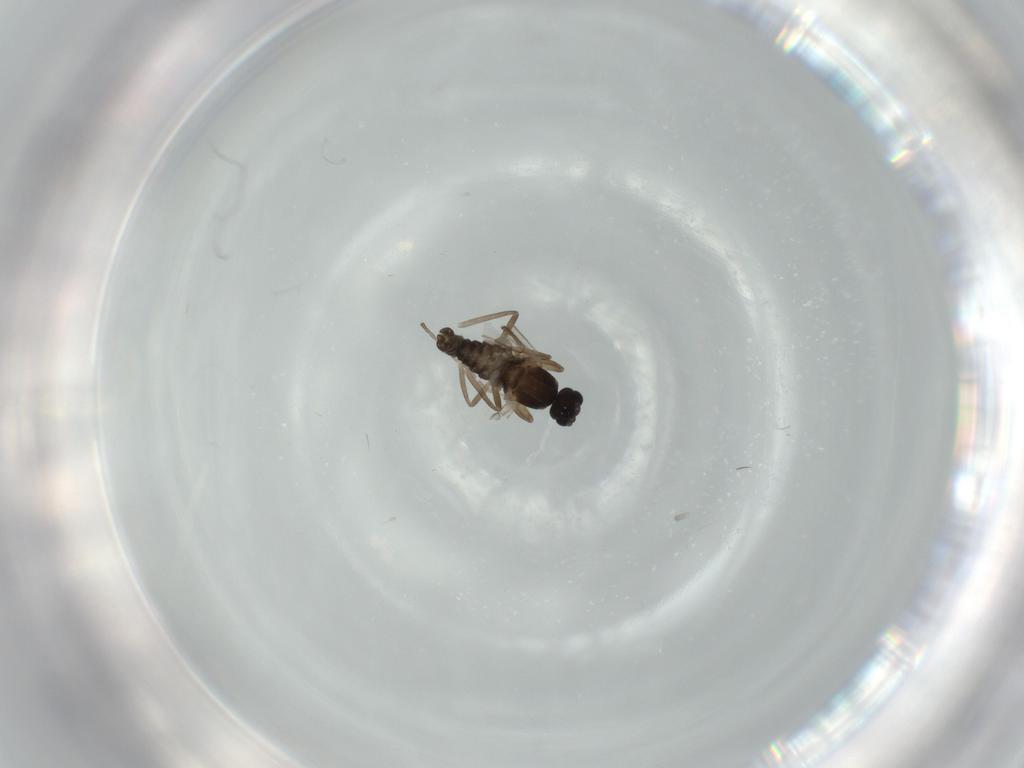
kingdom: Animalia
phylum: Arthropoda
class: Insecta
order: Diptera
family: Cecidomyiidae
